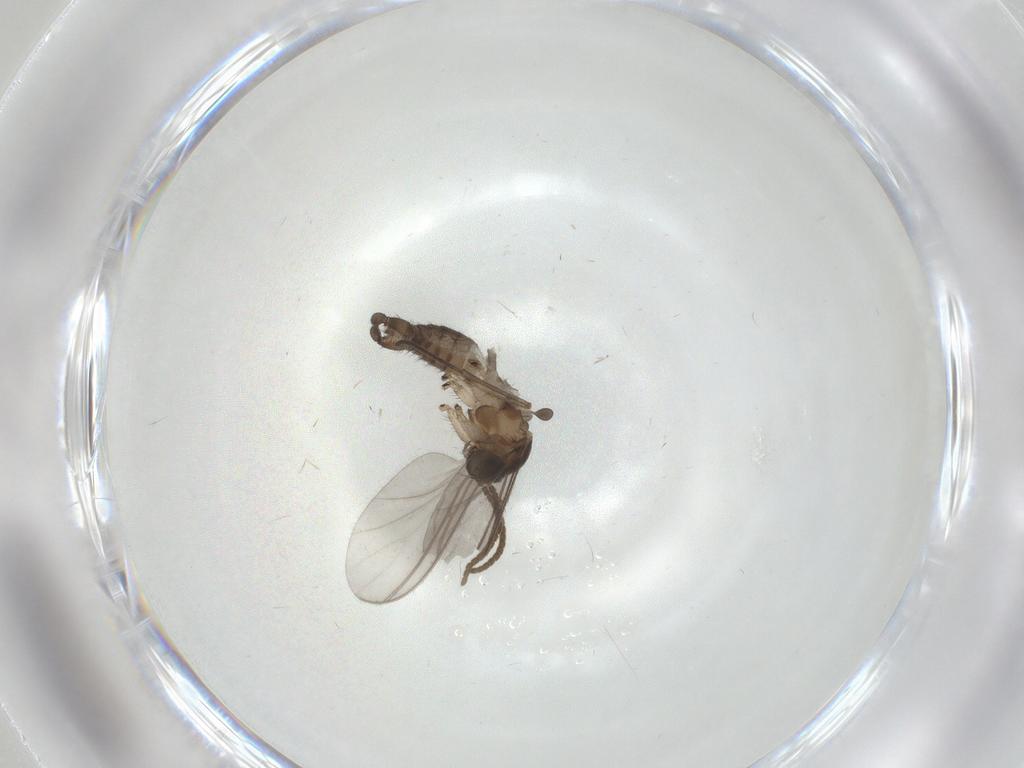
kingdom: Animalia
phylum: Arthropoda
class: Insecta
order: Diptera
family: Ceratopogonidae
